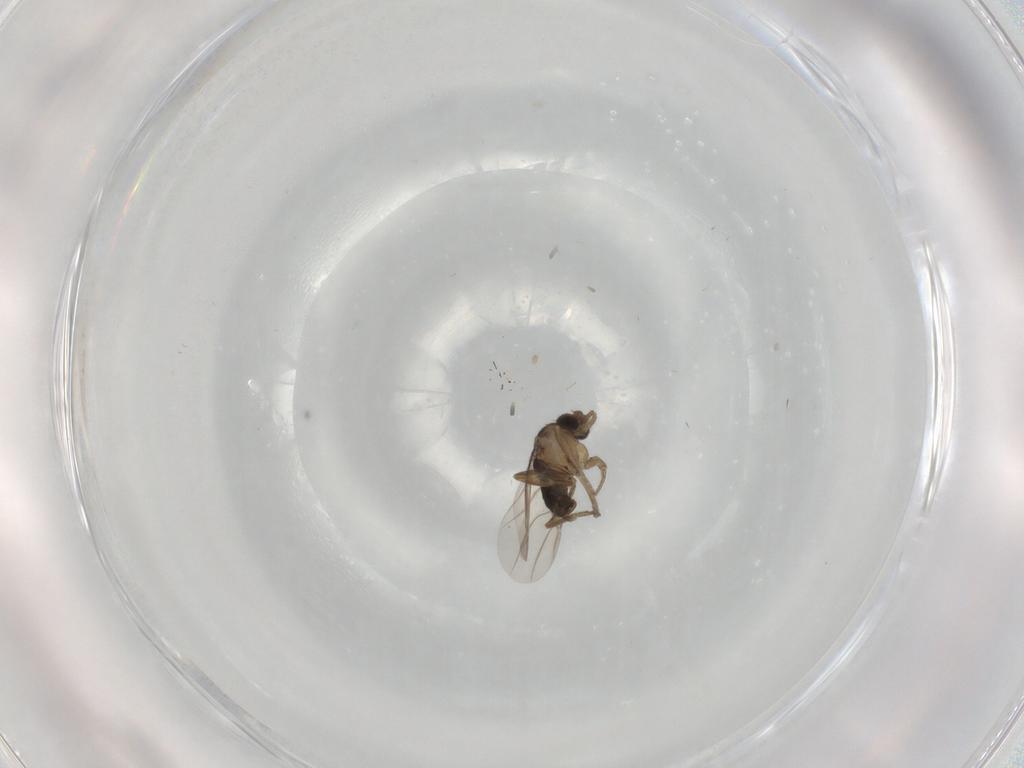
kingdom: Animalia
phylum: Arthropoda
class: Insecta
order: Diptera
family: Phoridae
